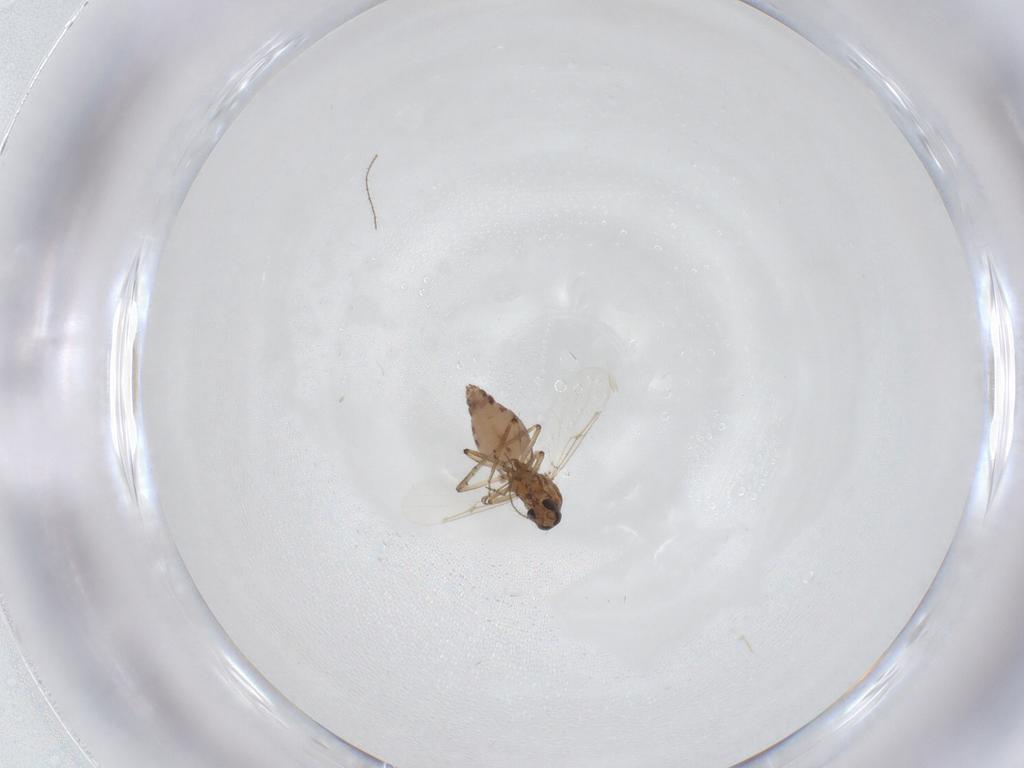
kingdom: Animalia
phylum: Arthropoda
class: Insecta
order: Diptera
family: Ceratopogonidae
